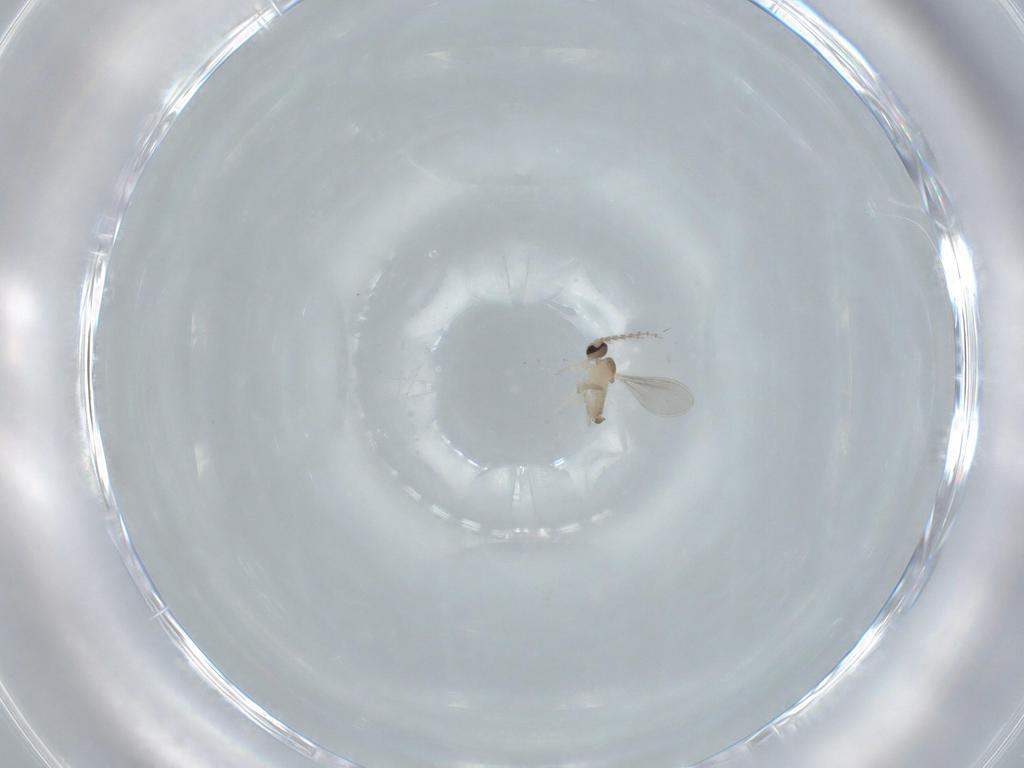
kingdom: Animalia
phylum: Arthropoda
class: Insecta
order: Diptera
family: Cecidomyiidae
